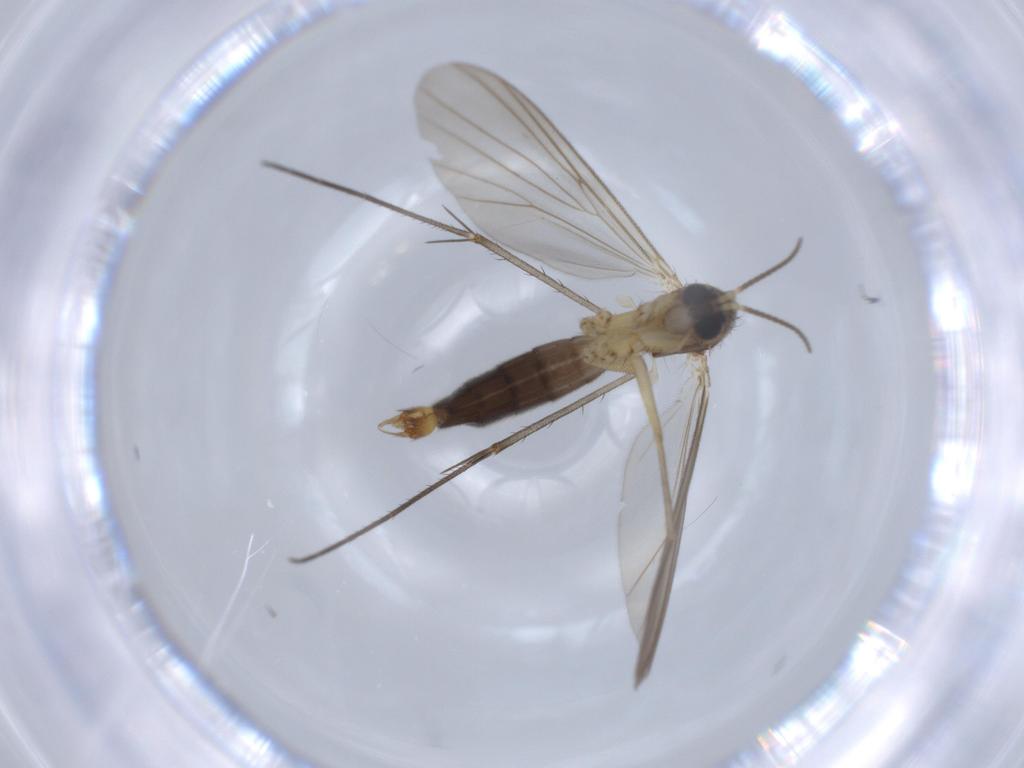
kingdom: Animalia
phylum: Arthropoda
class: Insecta
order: Diptera
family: Mycetophilidae
